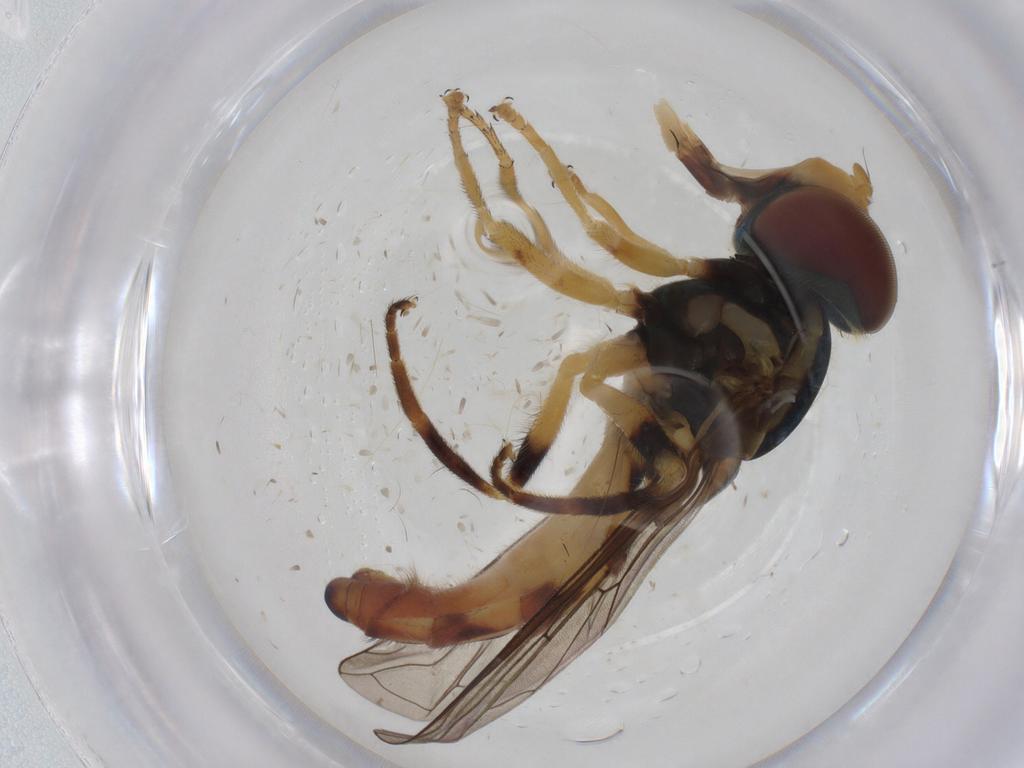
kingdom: Animalia
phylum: Arthropoda
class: Insecta
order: Diptera
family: Syrphidae
